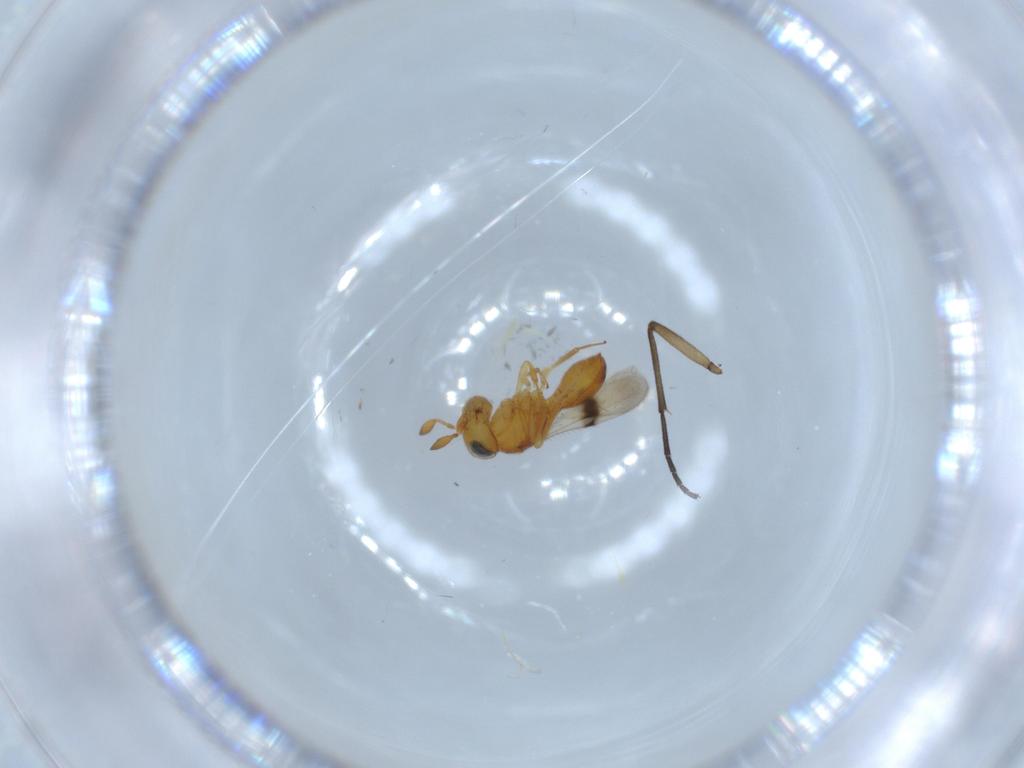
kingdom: Animalia
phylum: Arthropoda
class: Insecta
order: Hymenoptera
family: Scelionidae
